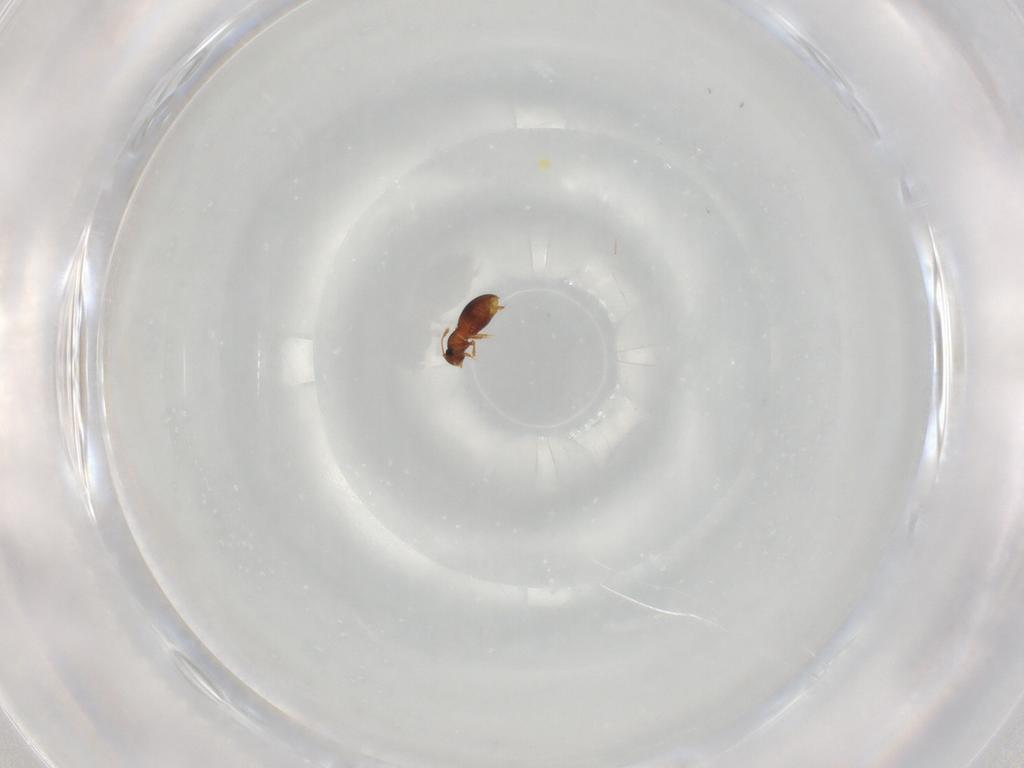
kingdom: Animalia
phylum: Arthropoda
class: Insecta
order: Coleoptera
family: Ptiliidae
